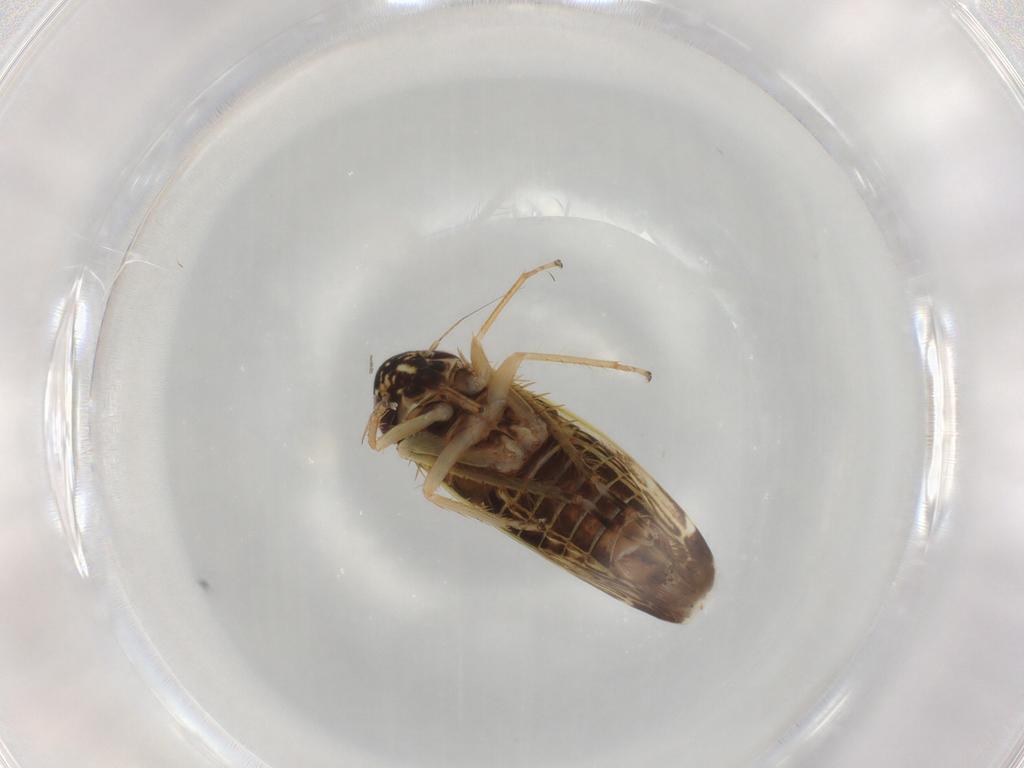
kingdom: Animalia
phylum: Arthropoda
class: Insecta
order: Hemiptera
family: Cicadellidae
